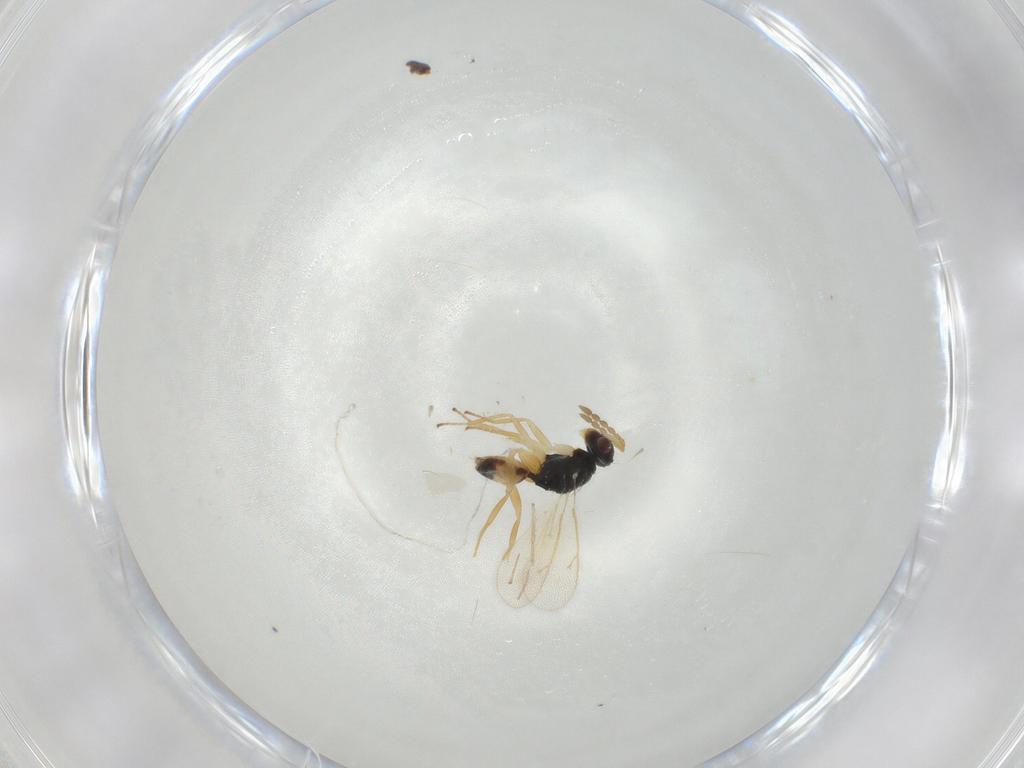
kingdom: Animalia
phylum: Arthropoda
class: Insecta
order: Hymenoptera
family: Eulophidae
